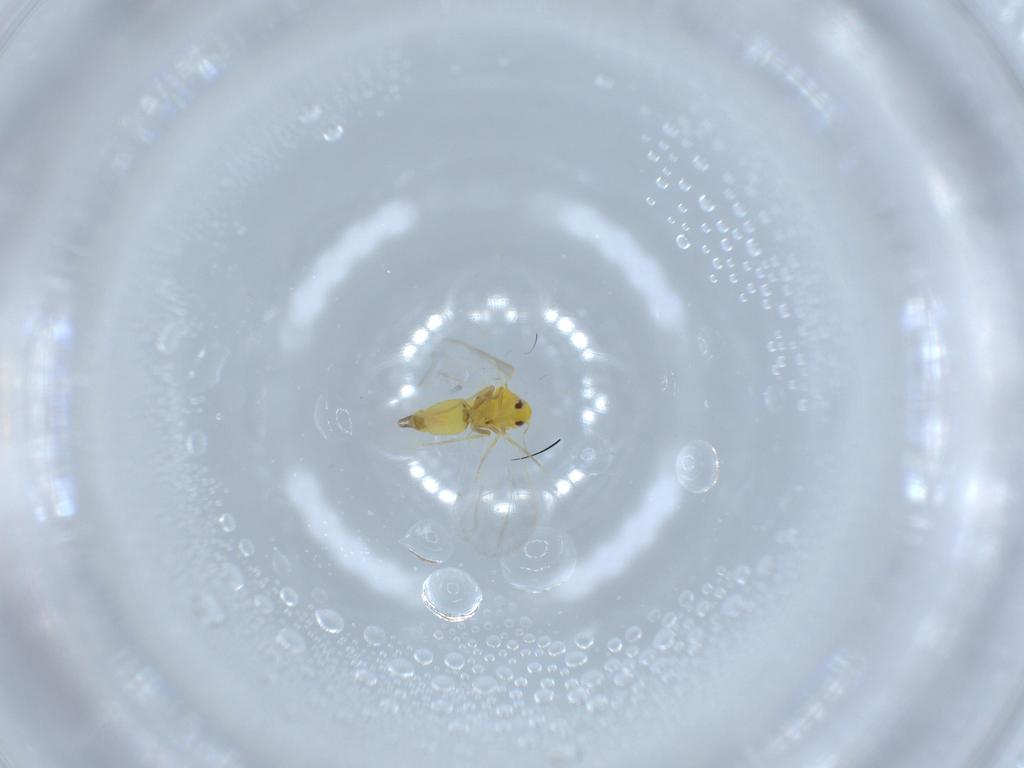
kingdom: Animalia
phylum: Arthropoda
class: Insecta
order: Hemiptera
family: Aleyrodidae
